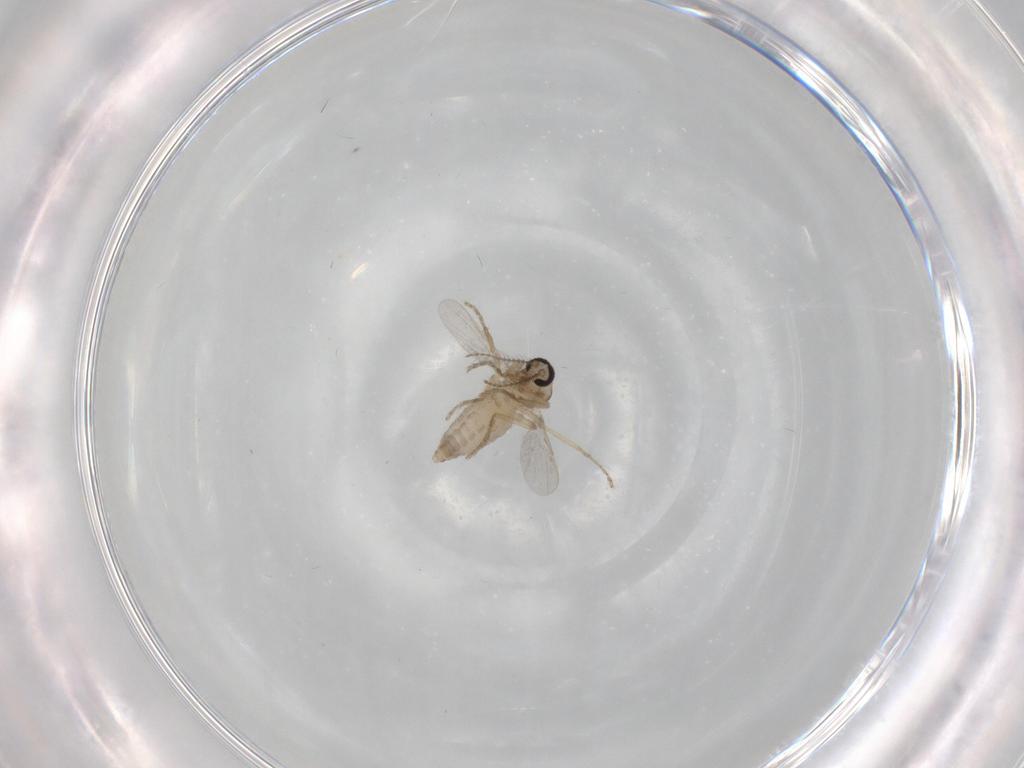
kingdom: Animalia
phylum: Arthropoda
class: Insecta
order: Diptera
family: Ceratopogonidae
